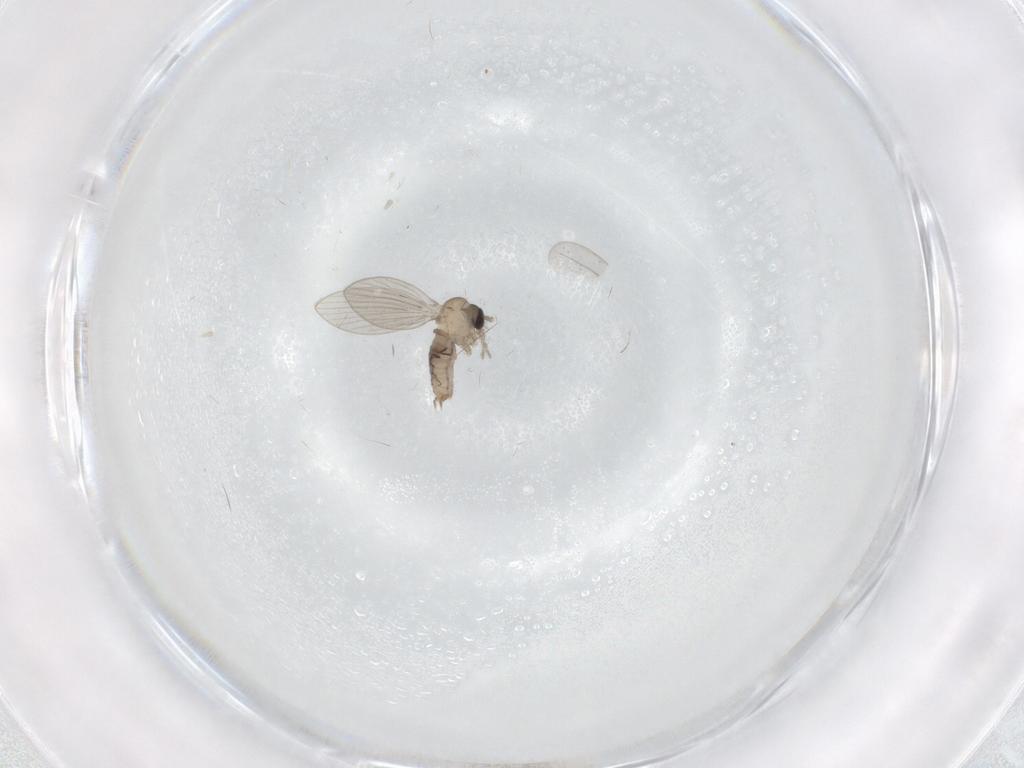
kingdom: Animalia
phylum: Arthropoda
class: Insecta
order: Diptera
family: Psychodidae
